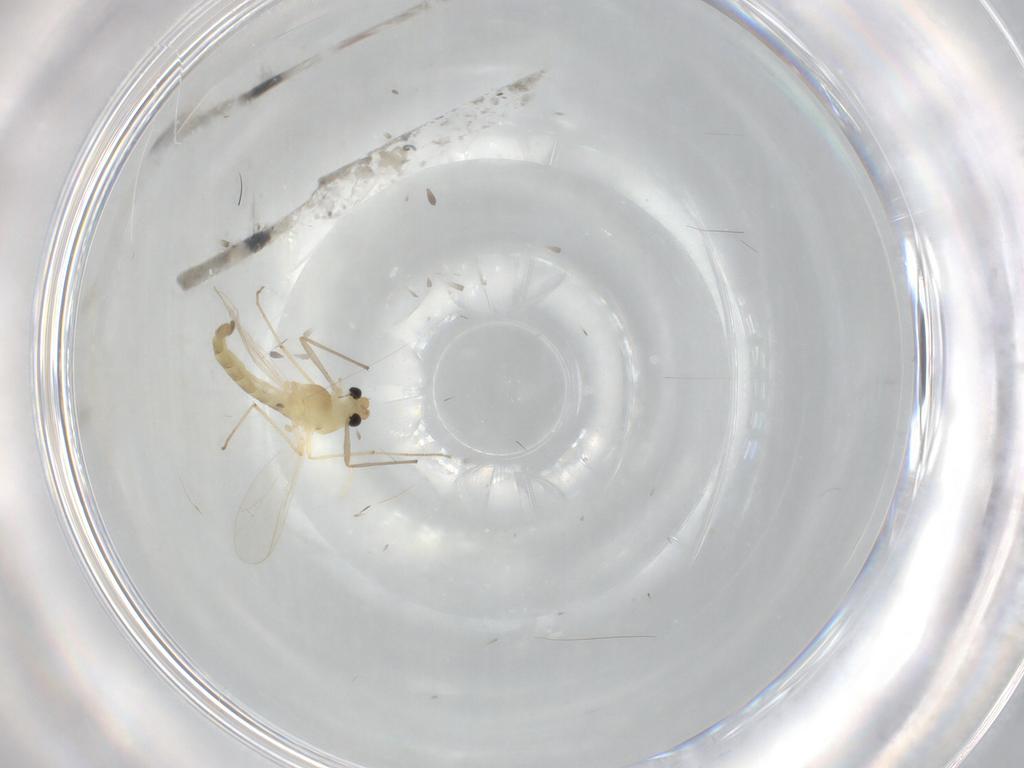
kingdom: Animalia
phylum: Arthropoda
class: Insecta
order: Diptera
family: Chironomidae
